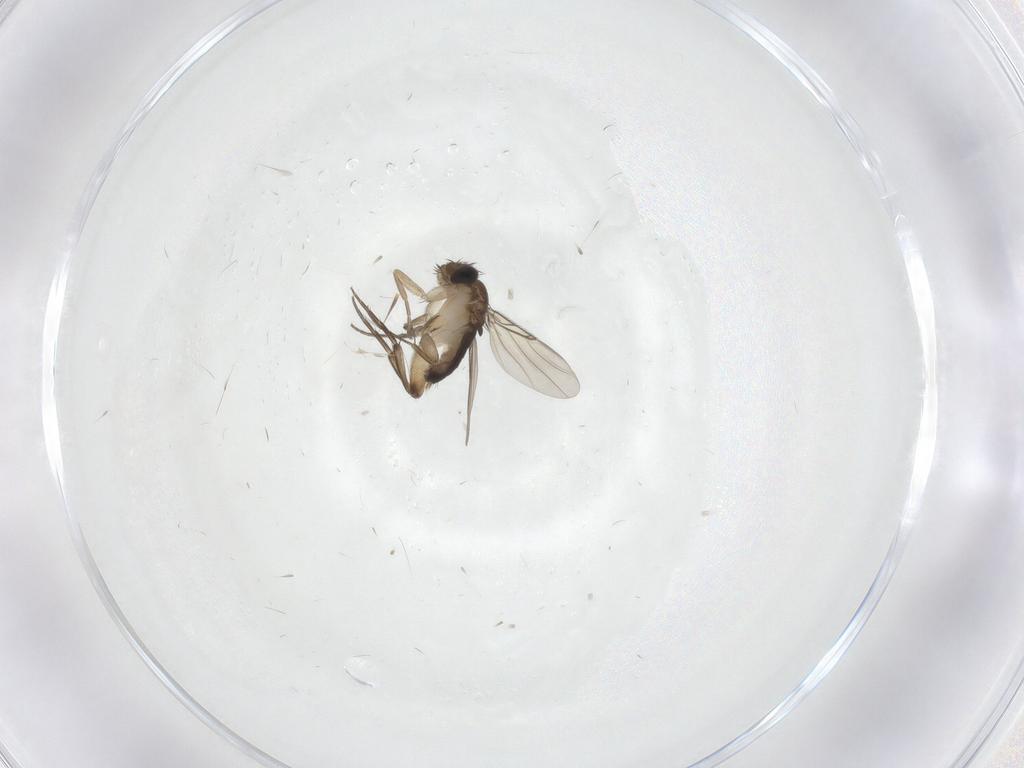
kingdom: Animalia
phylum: Arthropoda
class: Insecta
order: Diptera
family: Phoridae
